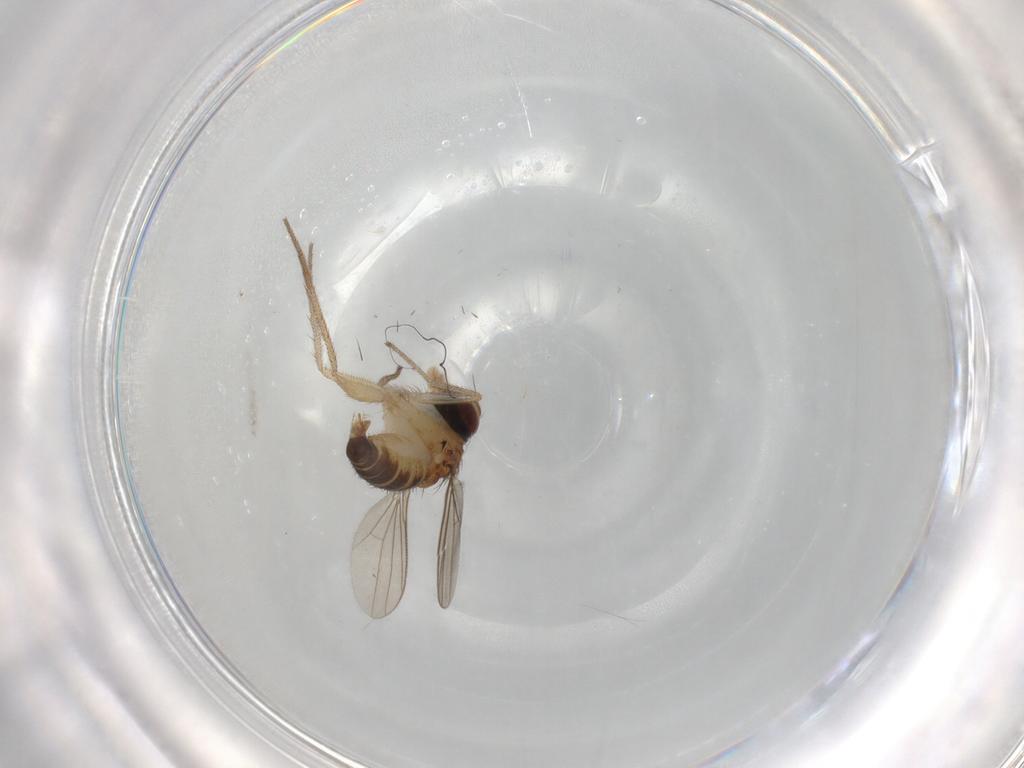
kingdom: Animalia
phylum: Arthropoda
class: Insecta
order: Diptera
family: Dolichopodidae
